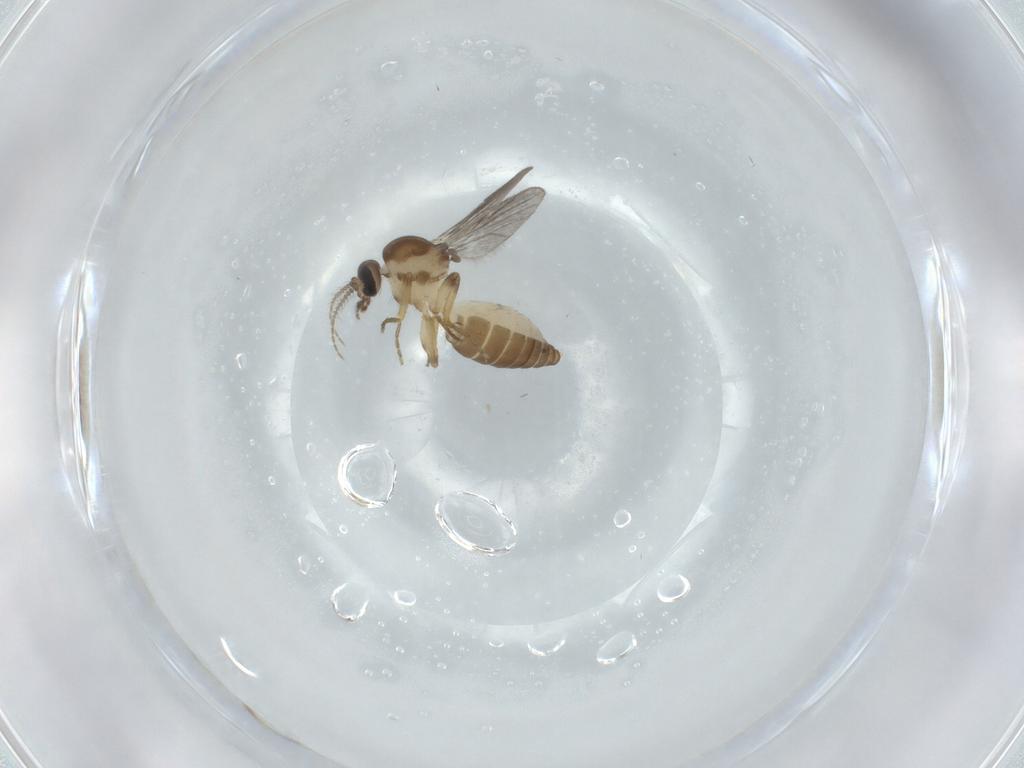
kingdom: Animalia
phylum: Arthropoda
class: Insecta
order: Diptera
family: Ceratopogonidae
